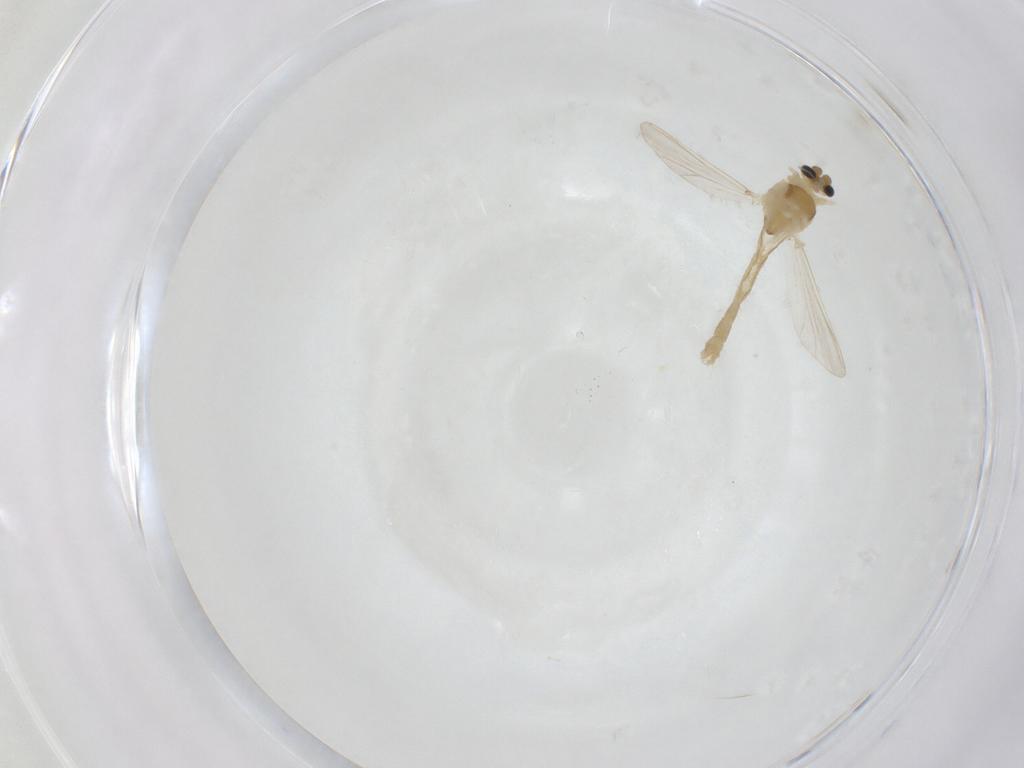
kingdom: Animalia
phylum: Arthropoda
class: Insecta
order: Diptera
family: Chironomidae
